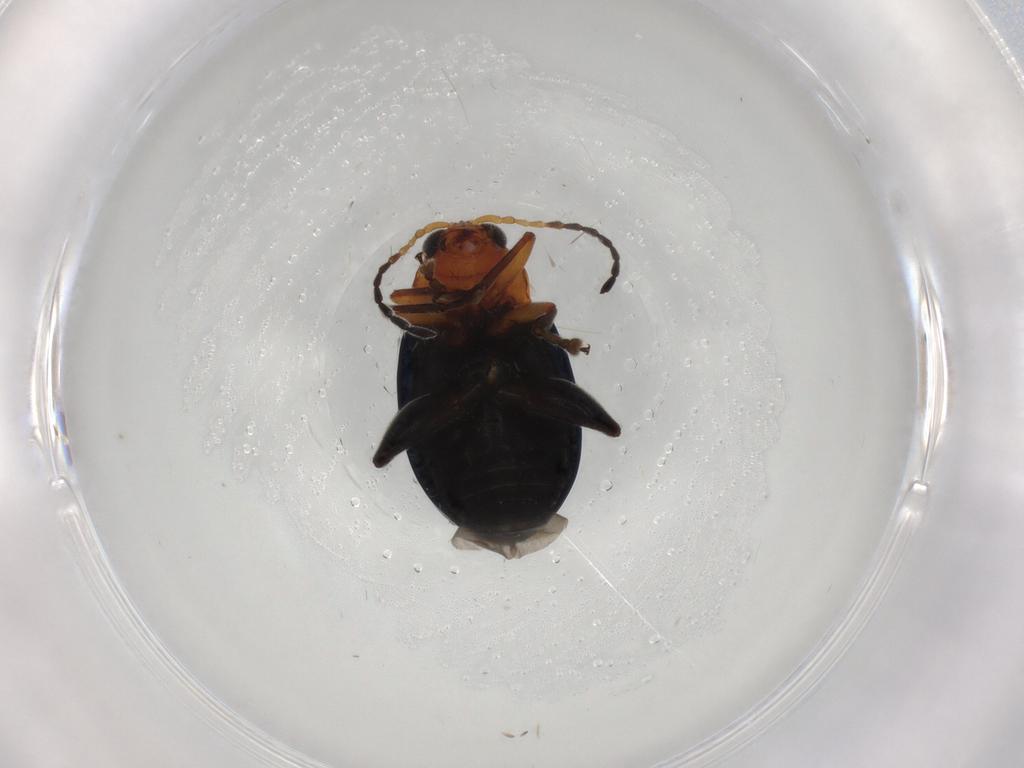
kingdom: Animalia
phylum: Arthropoda
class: Insecta
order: Coleoptera
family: Chrysomelidae
